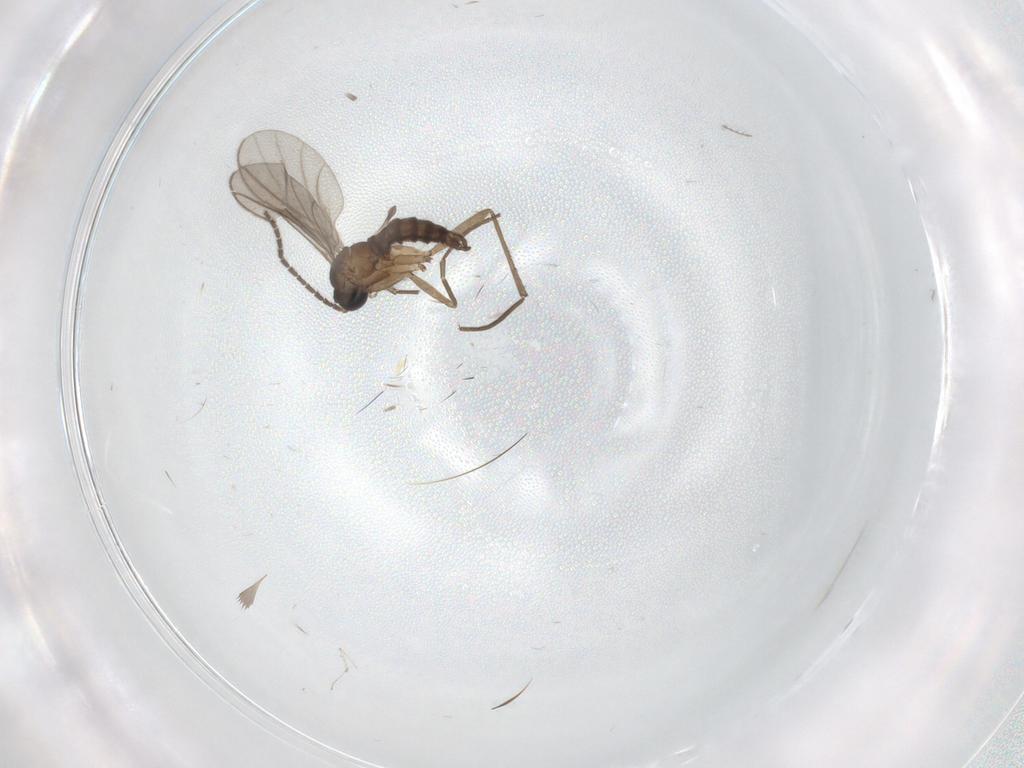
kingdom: Animalia
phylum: Arthropoda
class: Insecta
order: Diptera
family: Sciaridae
